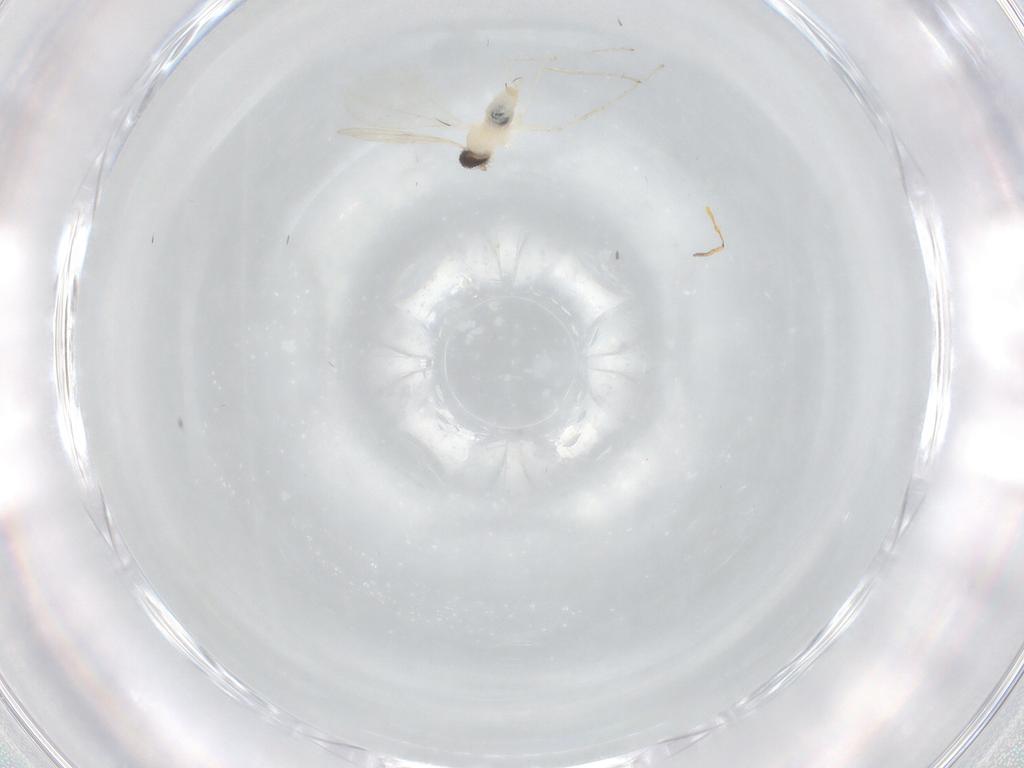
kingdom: Animalia
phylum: Arthropoda
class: Insecta
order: Diptera
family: Chironomidae
